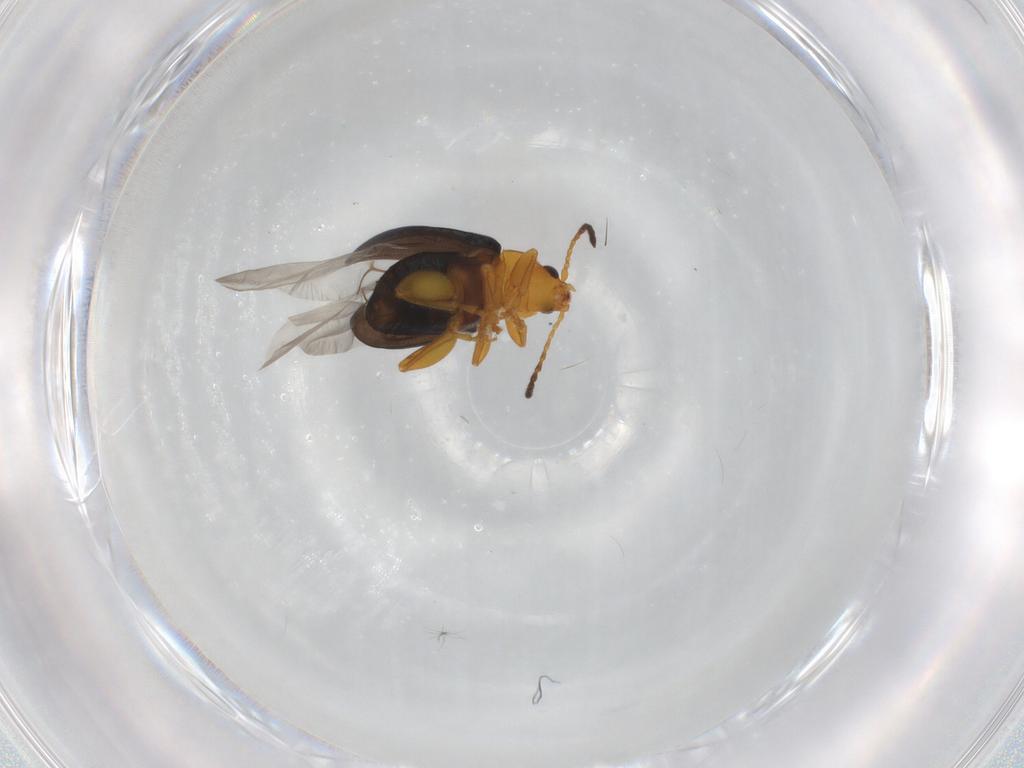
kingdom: Animalia
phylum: Arthropoda
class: Insecta
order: Coleoptera
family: Chrysomelidae
